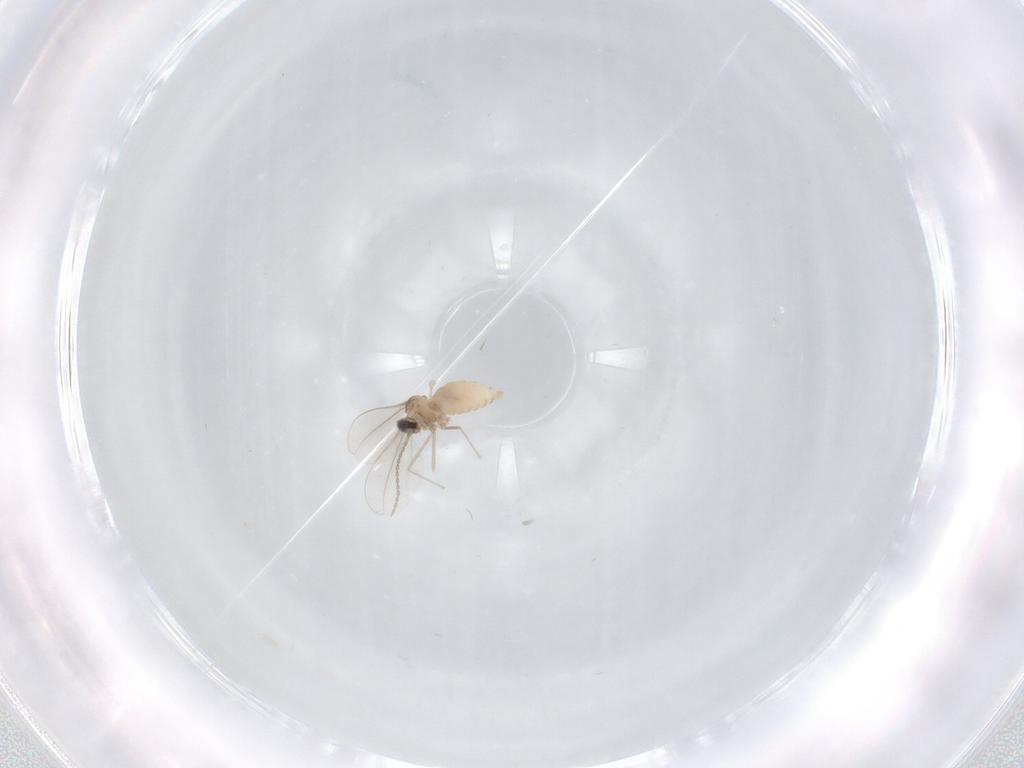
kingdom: Animalia
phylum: Arthropoda
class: Insecta
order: Diptera
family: Cecidomyiidae
